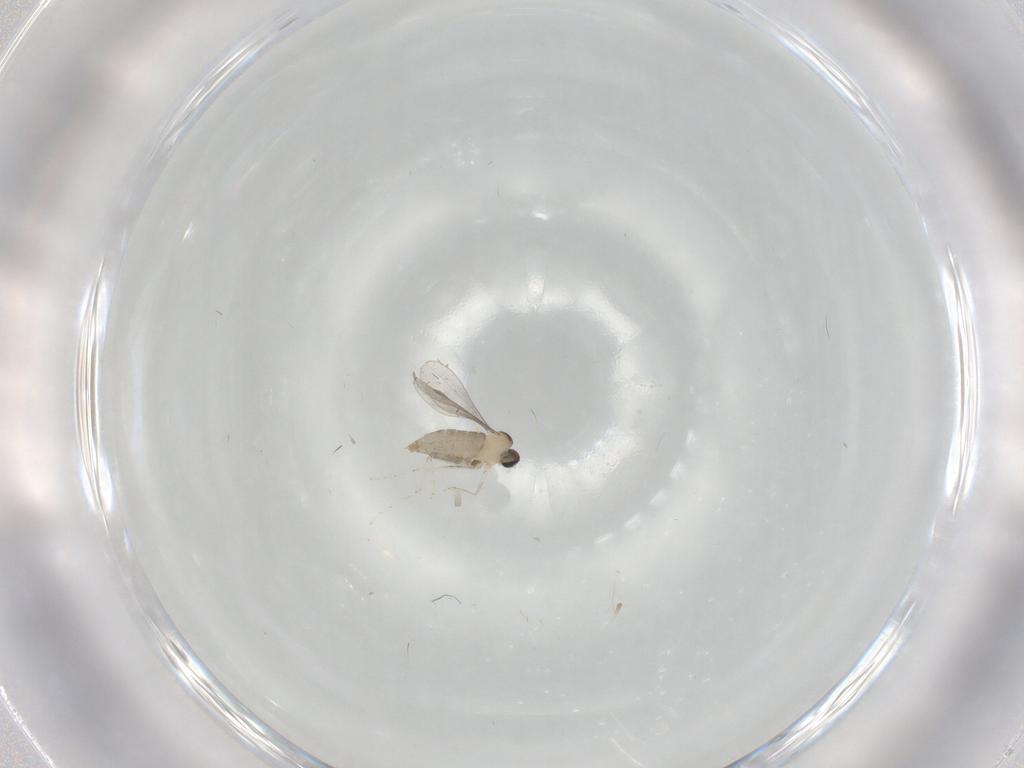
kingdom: Animalia
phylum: Arthropoda
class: Insecta
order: Diptera
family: Cecidomyiidae
